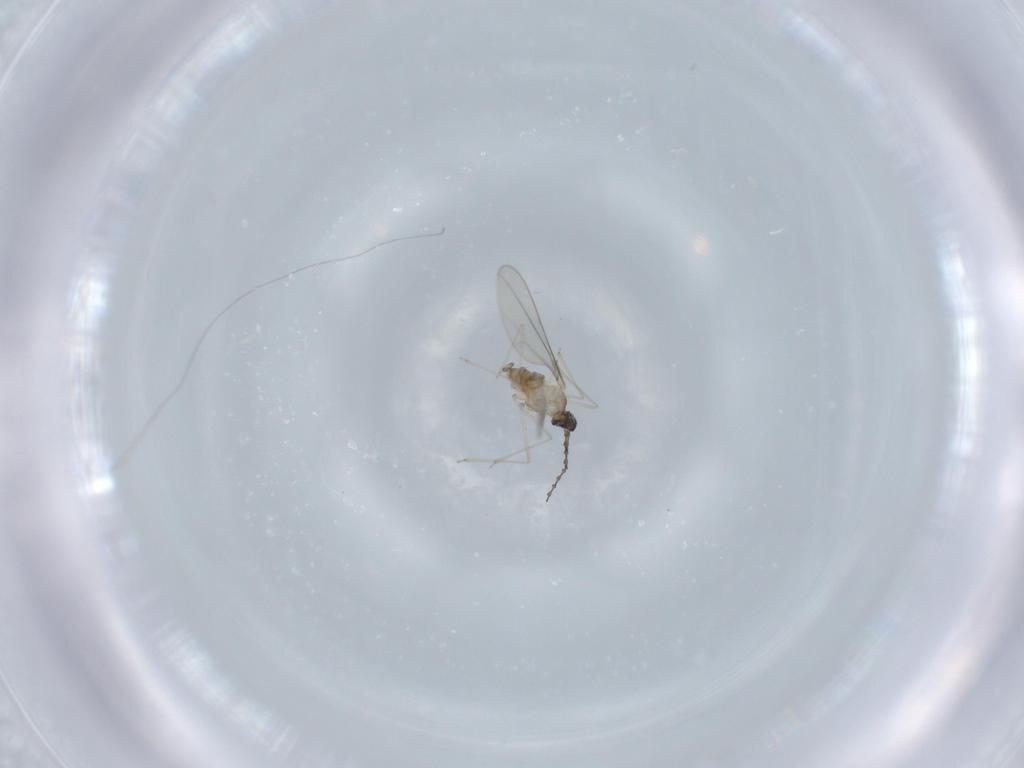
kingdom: Animalia
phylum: Arthropoda
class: Insecta
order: Diptera
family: Cecidomyiidae
